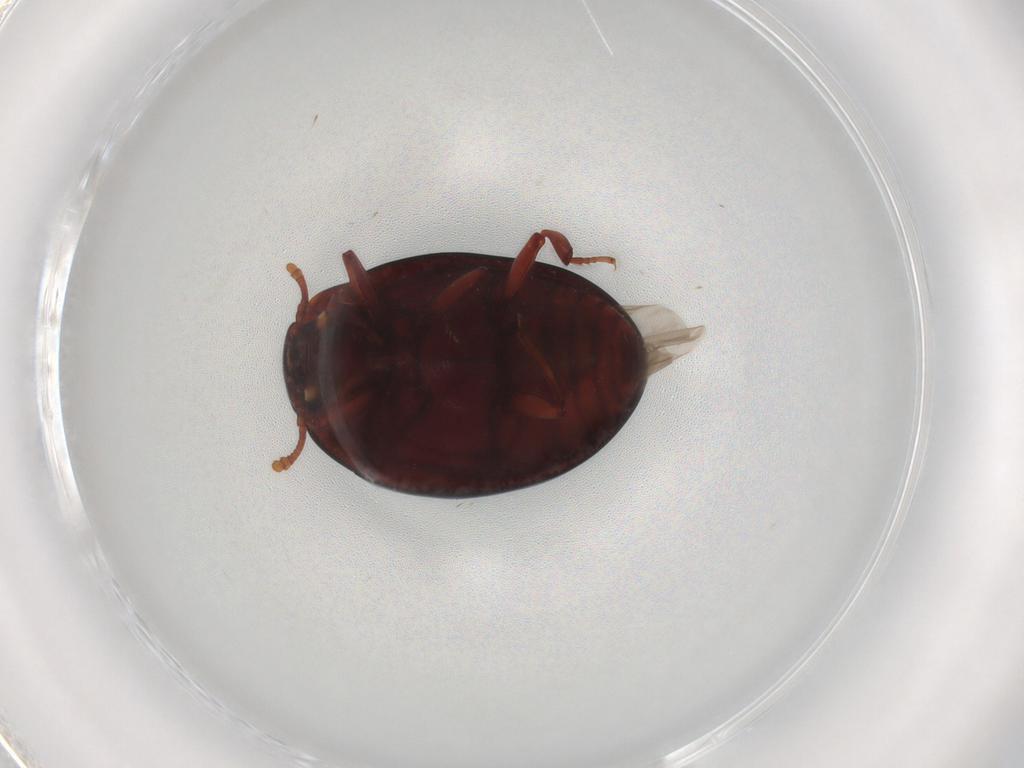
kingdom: Animalia
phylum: Arthropoda
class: Insecta
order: Coleoptera
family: Zopheridae
